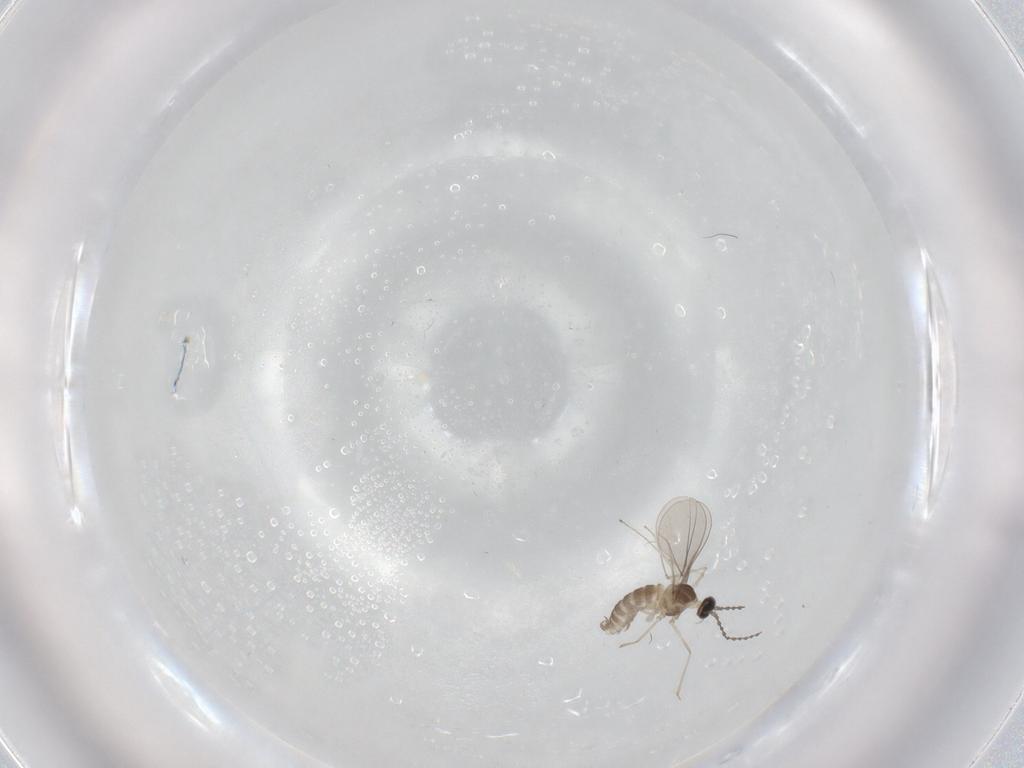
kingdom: Animalia
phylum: Arthropoda
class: Insecta
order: Diptera
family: Cecidomyiidae
